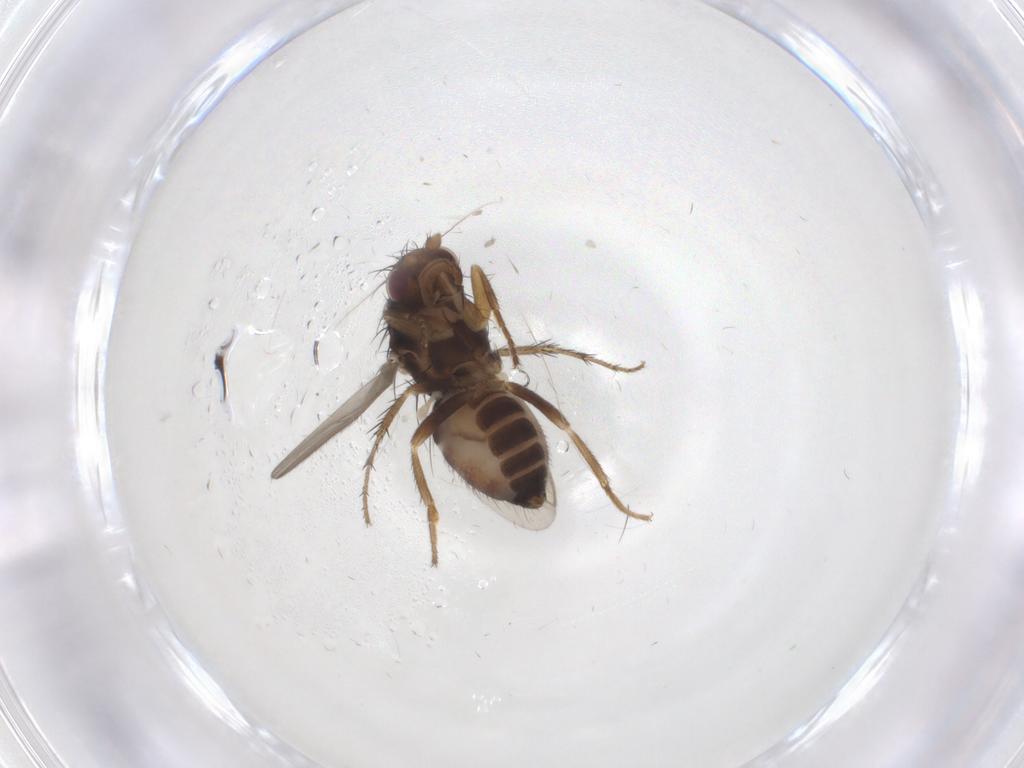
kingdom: Animalia
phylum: Arthropoda
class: Insecta
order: Diptera
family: Sphaeroceridae
